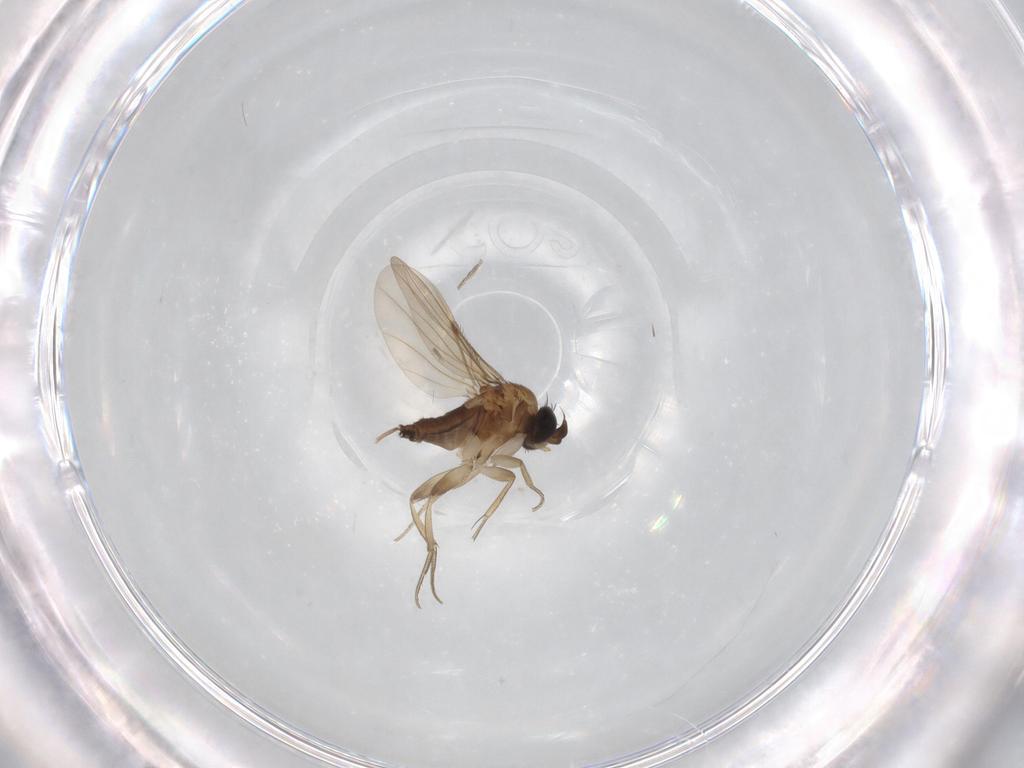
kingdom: Animalia
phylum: Arthropoda
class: Insecta
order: Diptera
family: Phoridae
